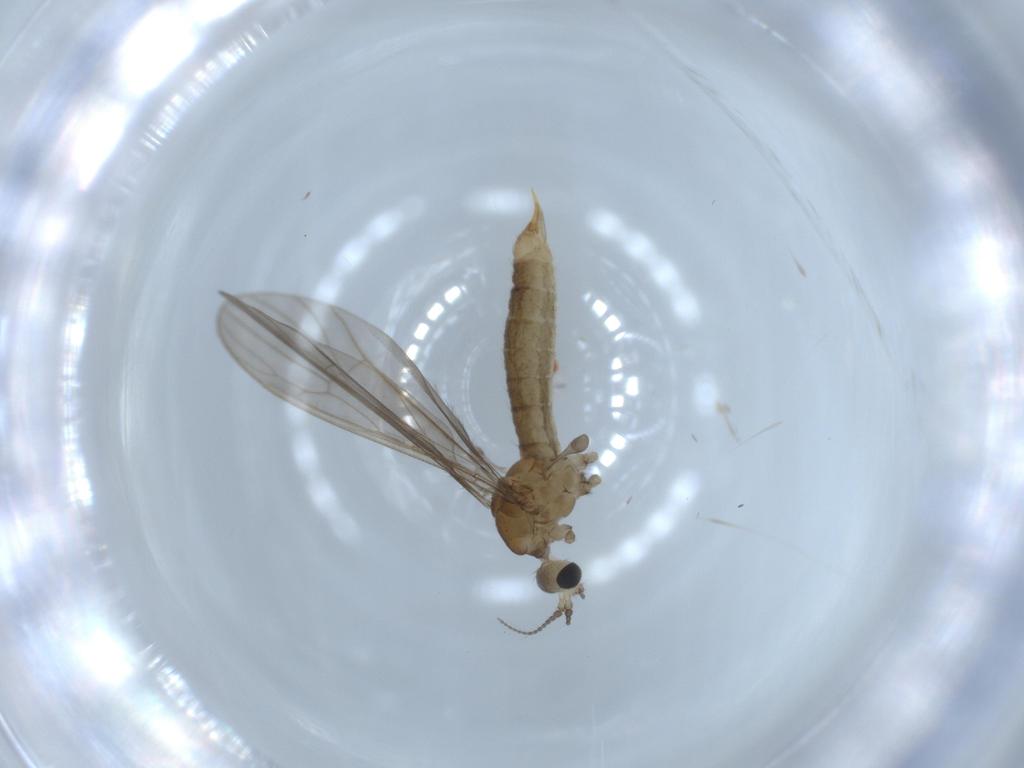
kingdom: Animalia
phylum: Arthropoda
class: Insecta
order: Diptera
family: Limoniidae
